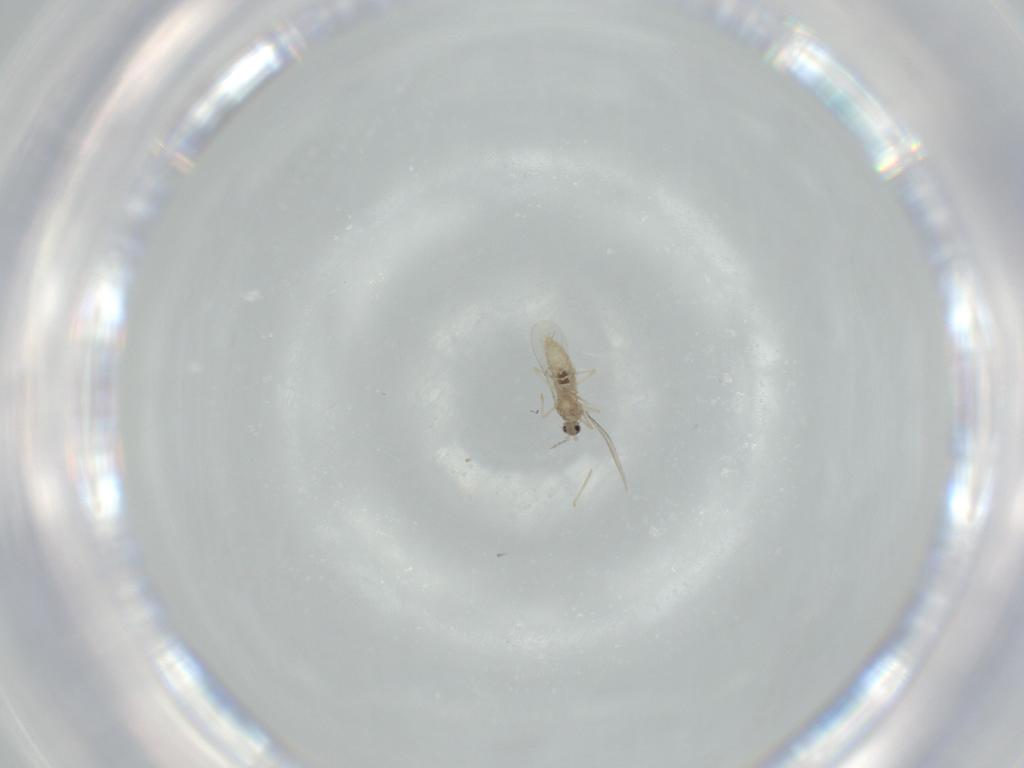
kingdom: Animalia
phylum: Arthropoda
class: Insecta
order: Diptera
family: Cecidomyiidae
